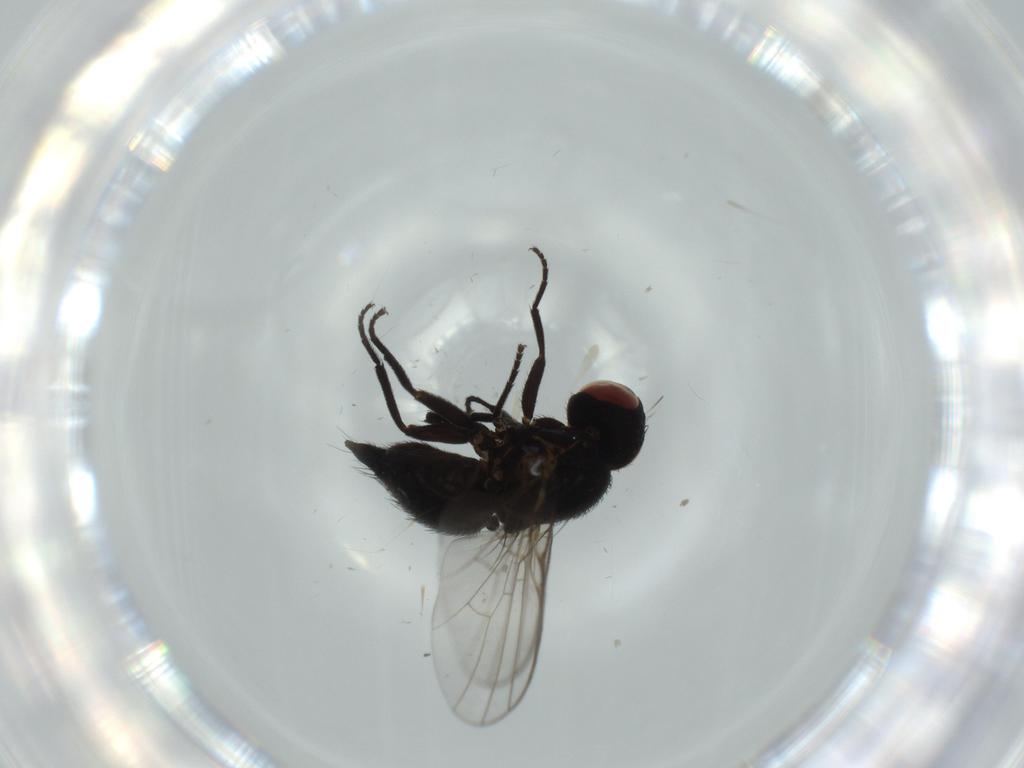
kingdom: Animalia
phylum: Arthropoda
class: Insecta
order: Diptera
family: Agromyzidae
